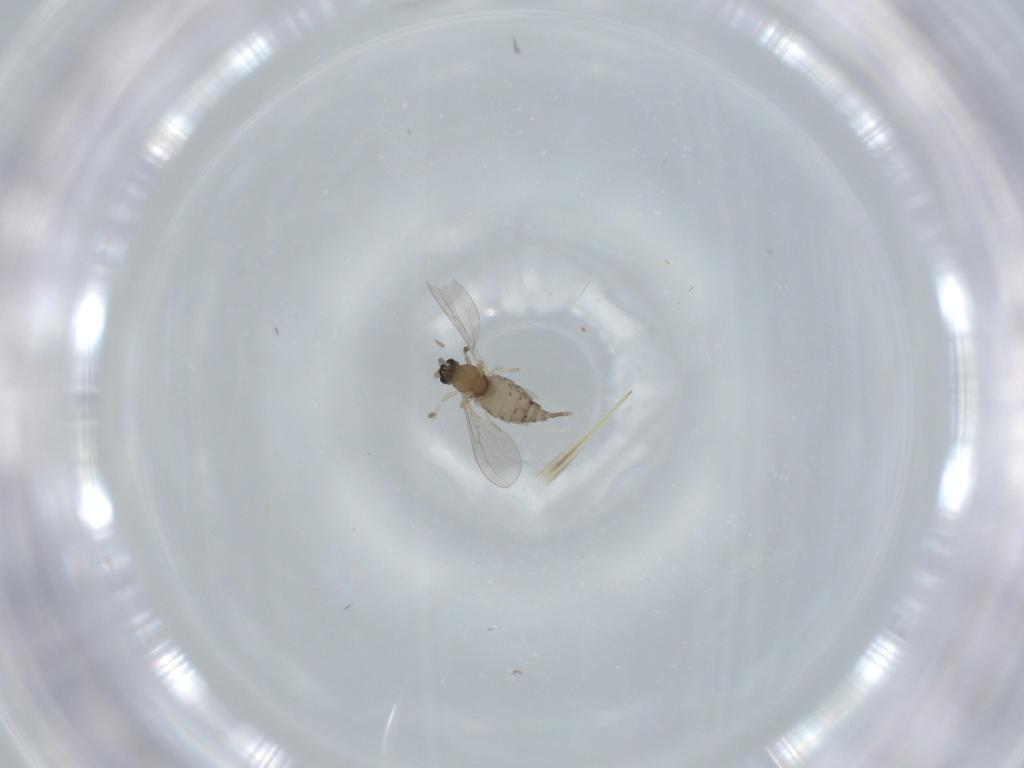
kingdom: Animalia
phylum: Arthropoda
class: Insecta
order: Diptera
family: Cecidomyiidae
